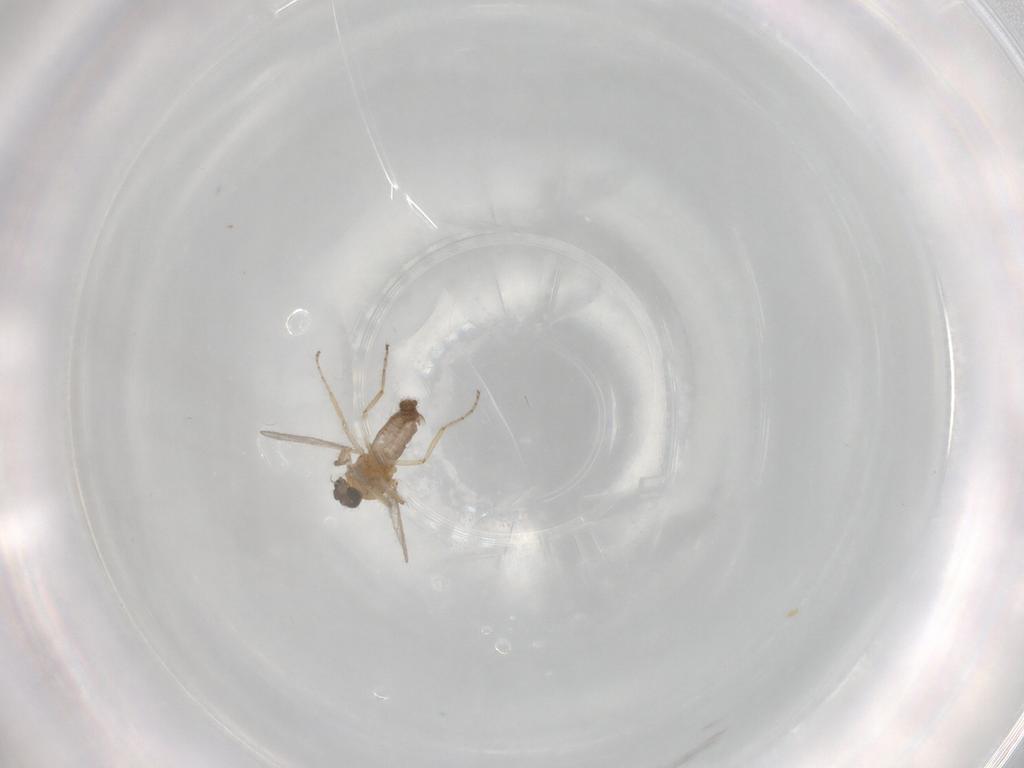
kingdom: Animalia
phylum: Arthropoda
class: Insecta
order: Diptera
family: Ceratopogonidae
